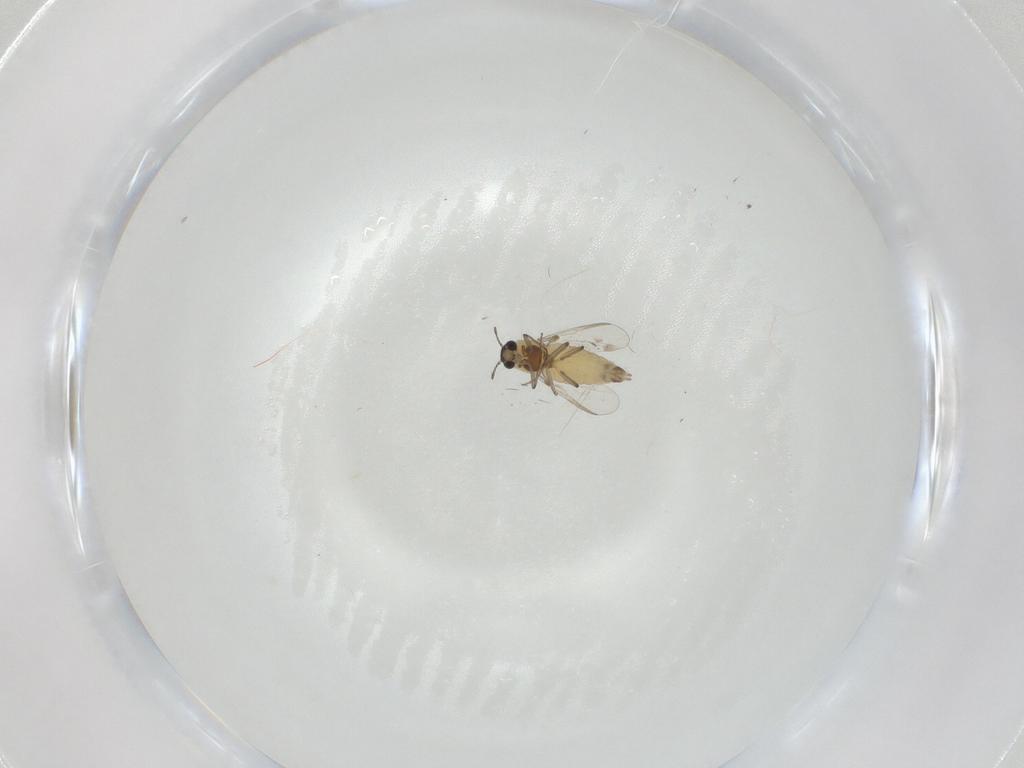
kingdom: Animalia
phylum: Arthropoda
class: Insecta
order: Diptera
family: Chironomidae
